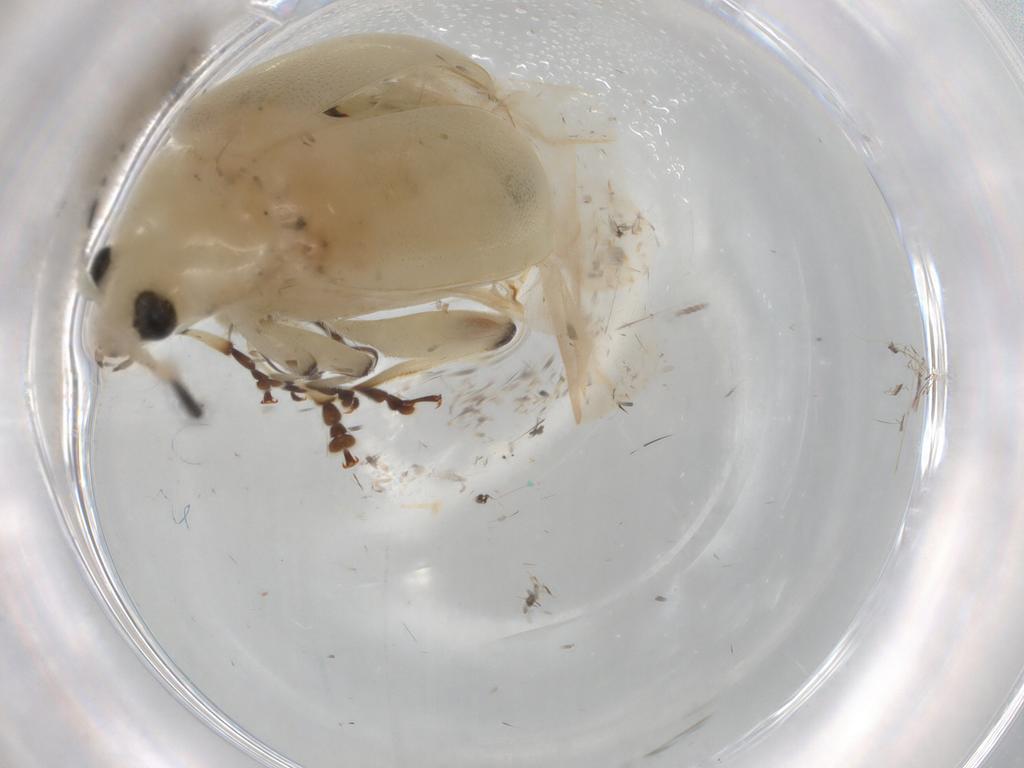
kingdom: Animalia
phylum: Arthropoda
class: Insecta
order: Coleoptera
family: Chrysomelidae
